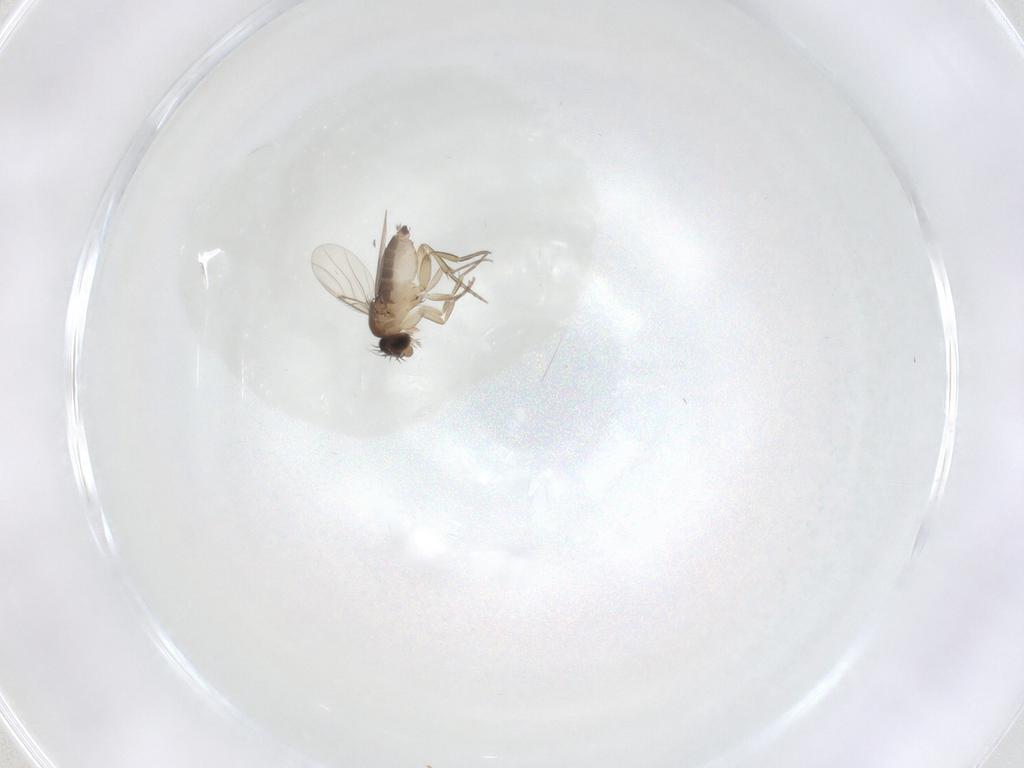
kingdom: Animalia
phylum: Arthropoda
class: Insecta
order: Diptera
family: Phoridae
